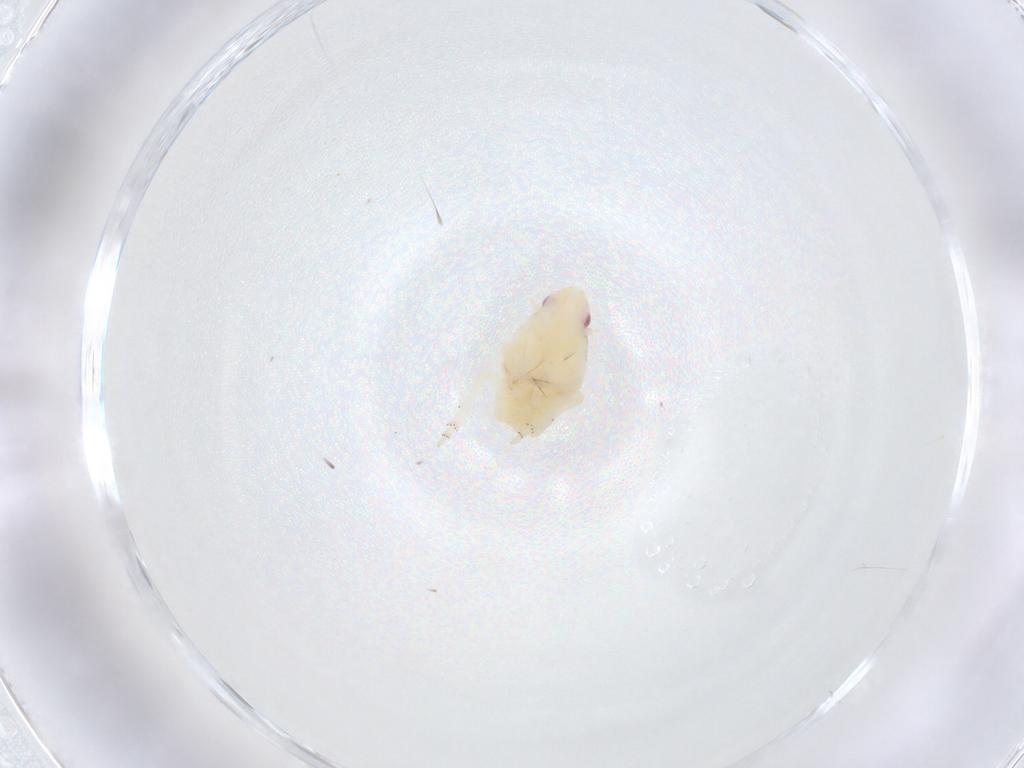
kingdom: Animalia
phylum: Arthropoda
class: Insecta
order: Hemiptera
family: Flatidae
